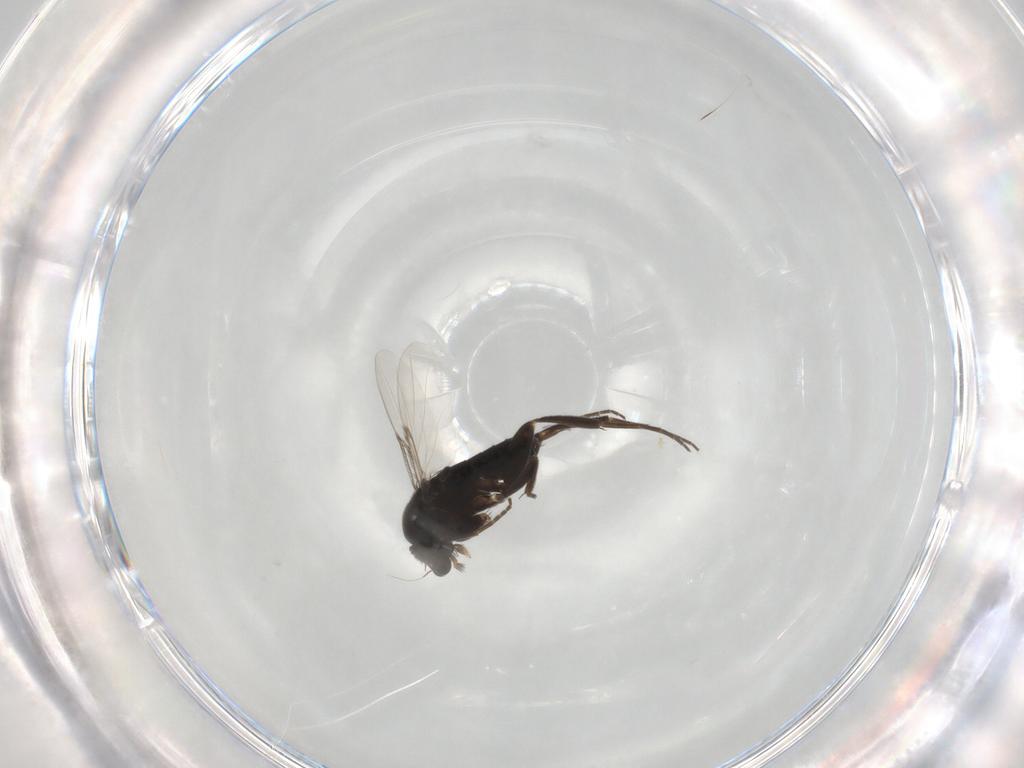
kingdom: Animalia
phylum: Arthropoda
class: Insecta
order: Diptera
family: Phoridae
